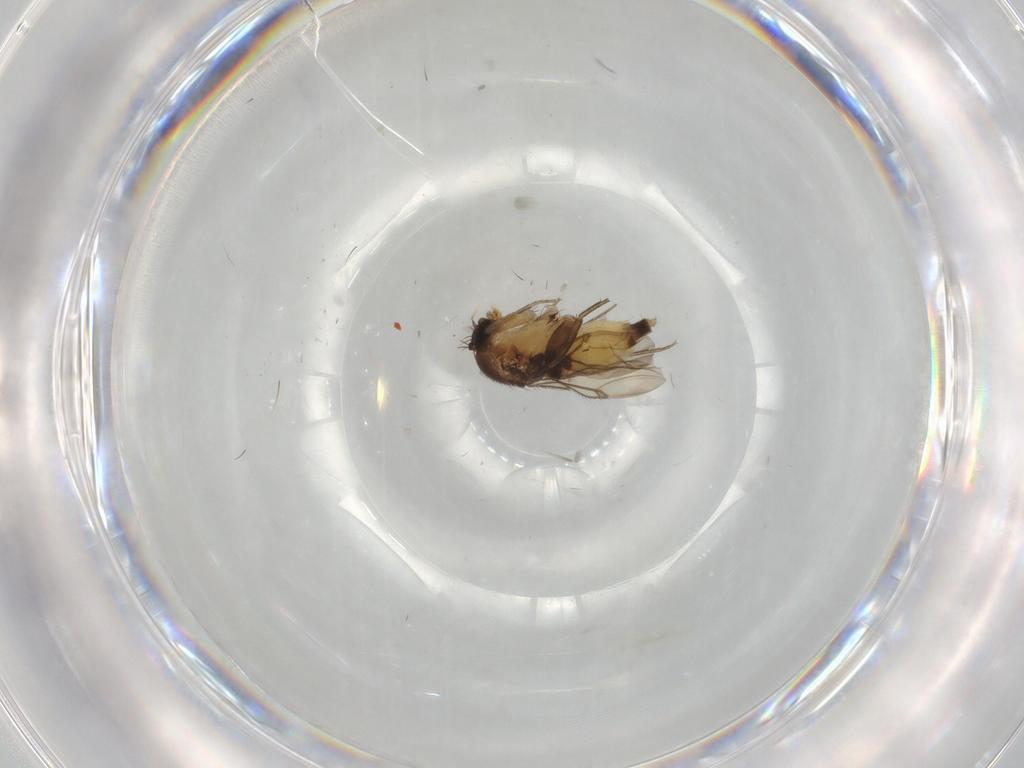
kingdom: Animalia
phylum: Arthropoda
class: Insecta
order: Diptera
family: Phoridae
